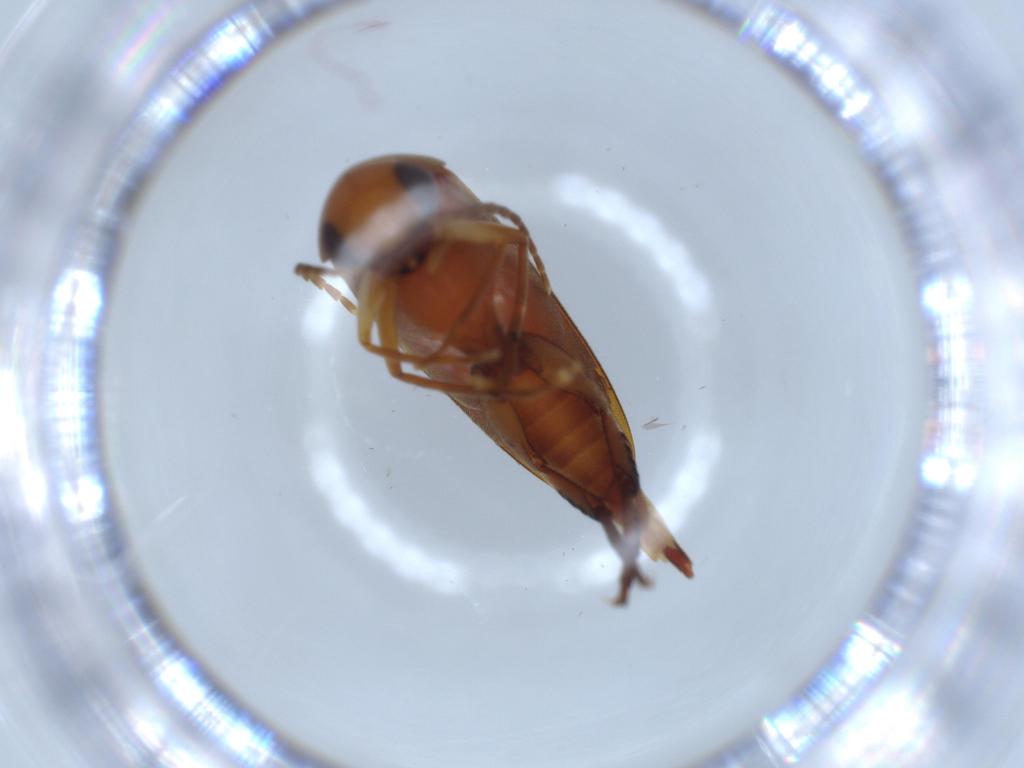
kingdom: Animalia
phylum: Arthropoda
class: Insecta
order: Coleoptera
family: Mordellidae
